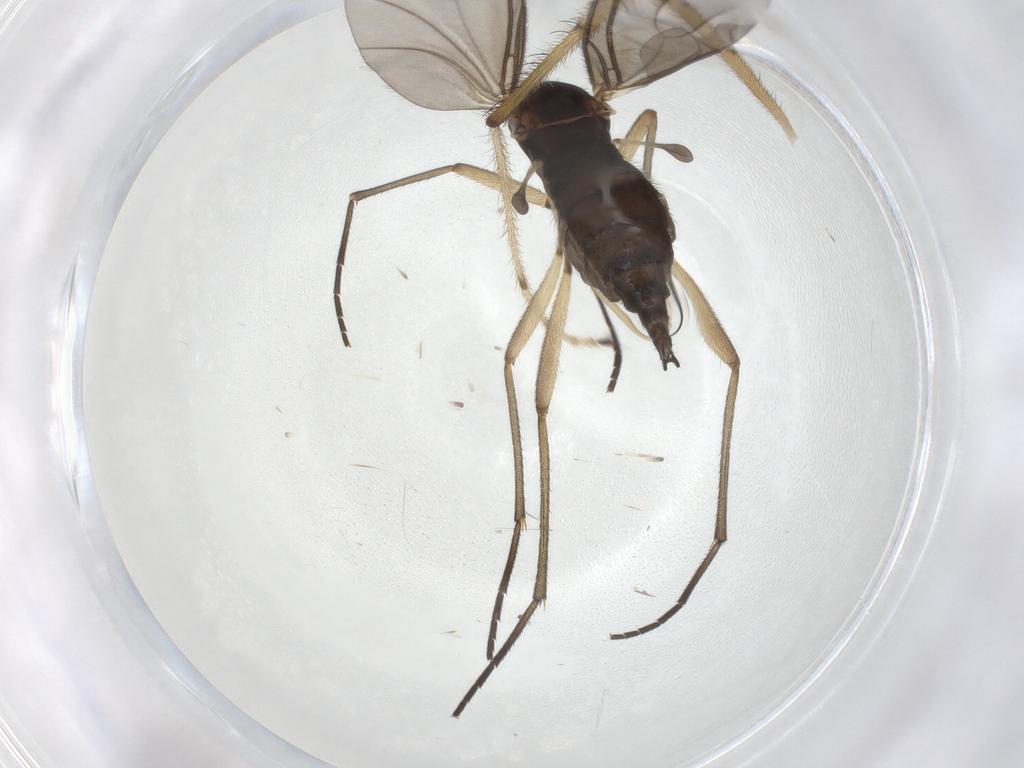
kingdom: Animalia
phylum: Arthropoda
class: Insecta
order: Diptera
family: Limoniidae
